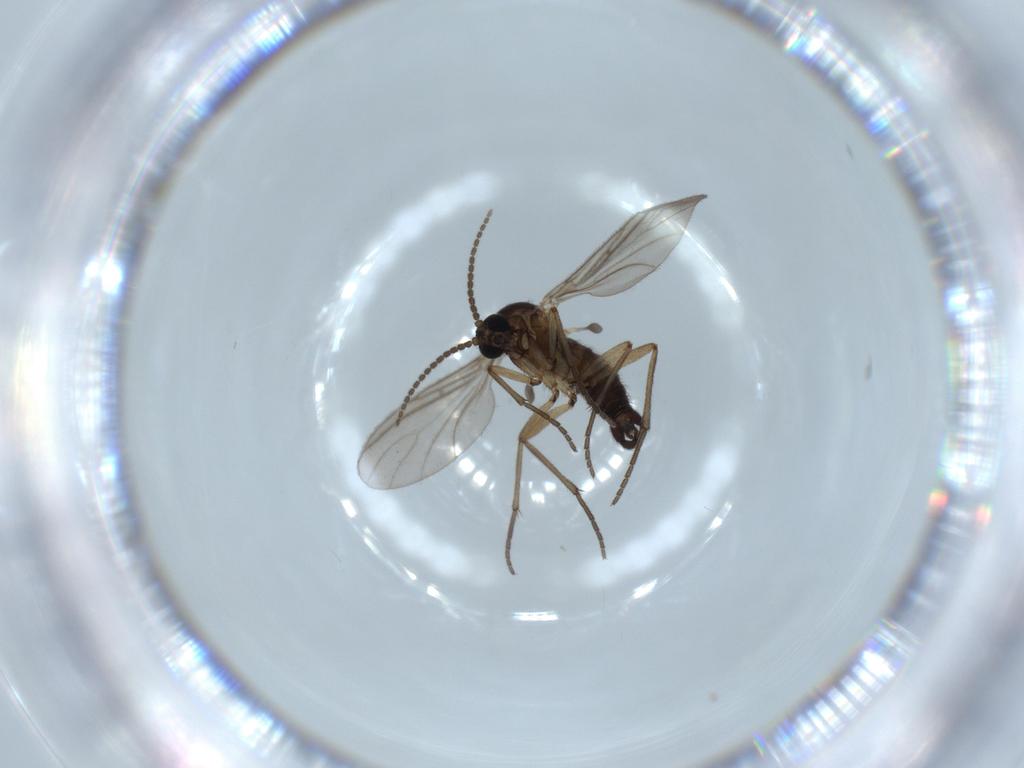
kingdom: Animalia
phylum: Arthropoda
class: Insecta
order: Diptera
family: Sciaridae
